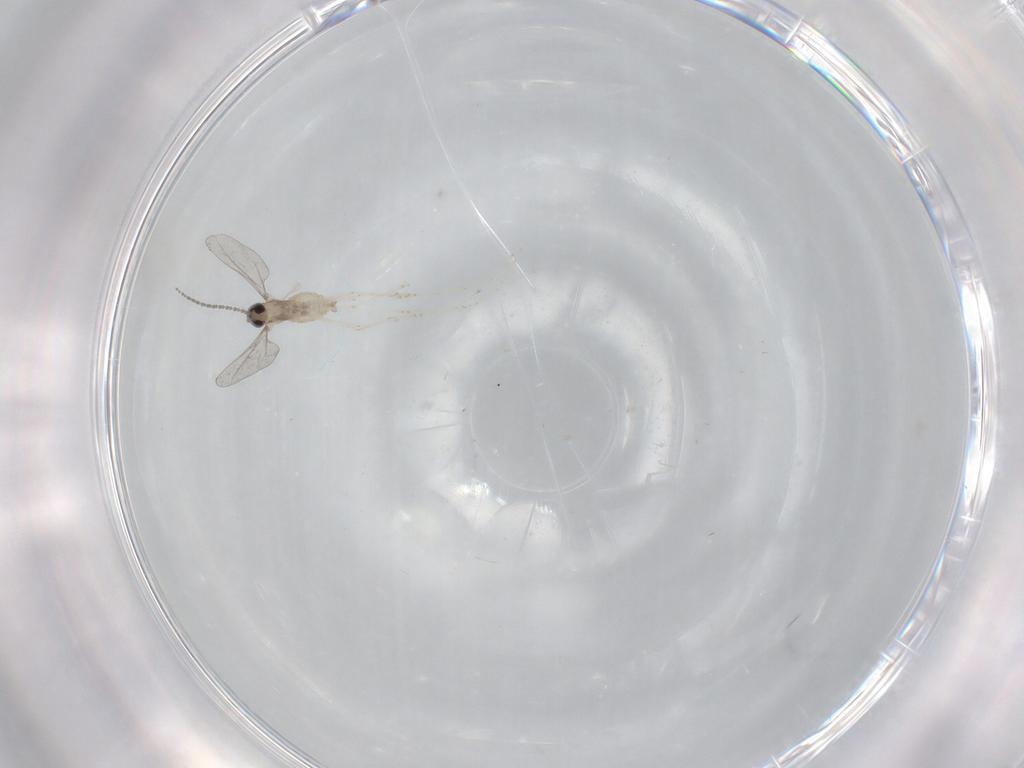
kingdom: Animalia
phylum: Arthropoda
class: Insecta
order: Diptera
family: Cecidomyiidae
